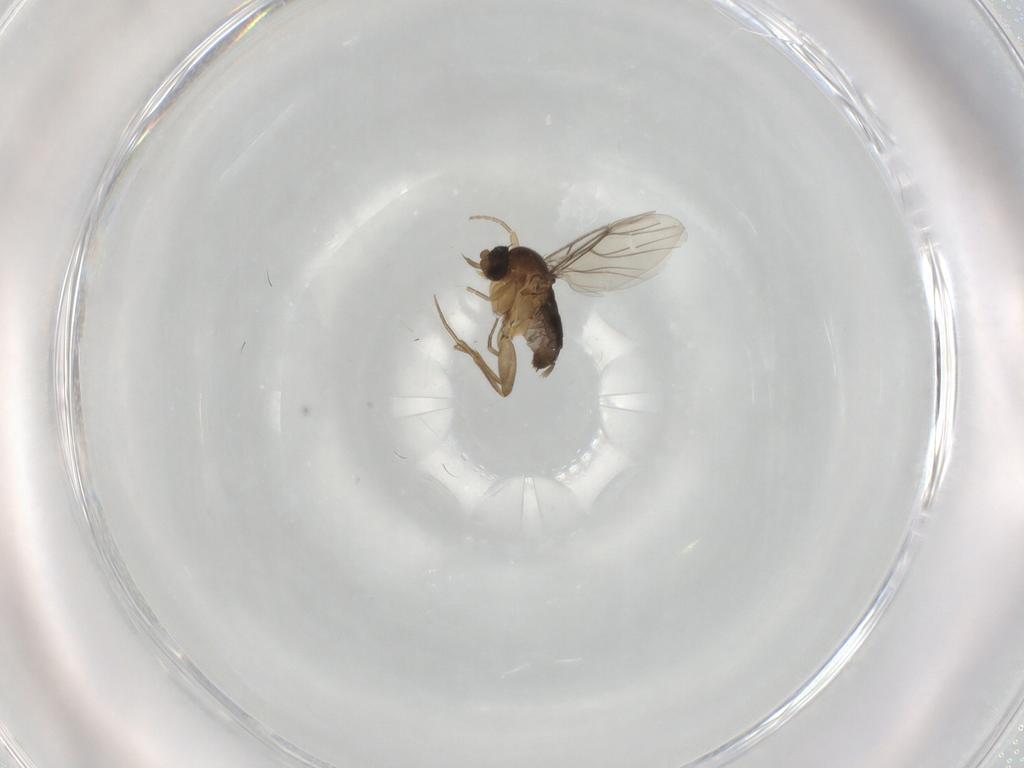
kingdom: Animalia
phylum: Arthropoda
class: Insecta
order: Diptera
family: Phoridae
